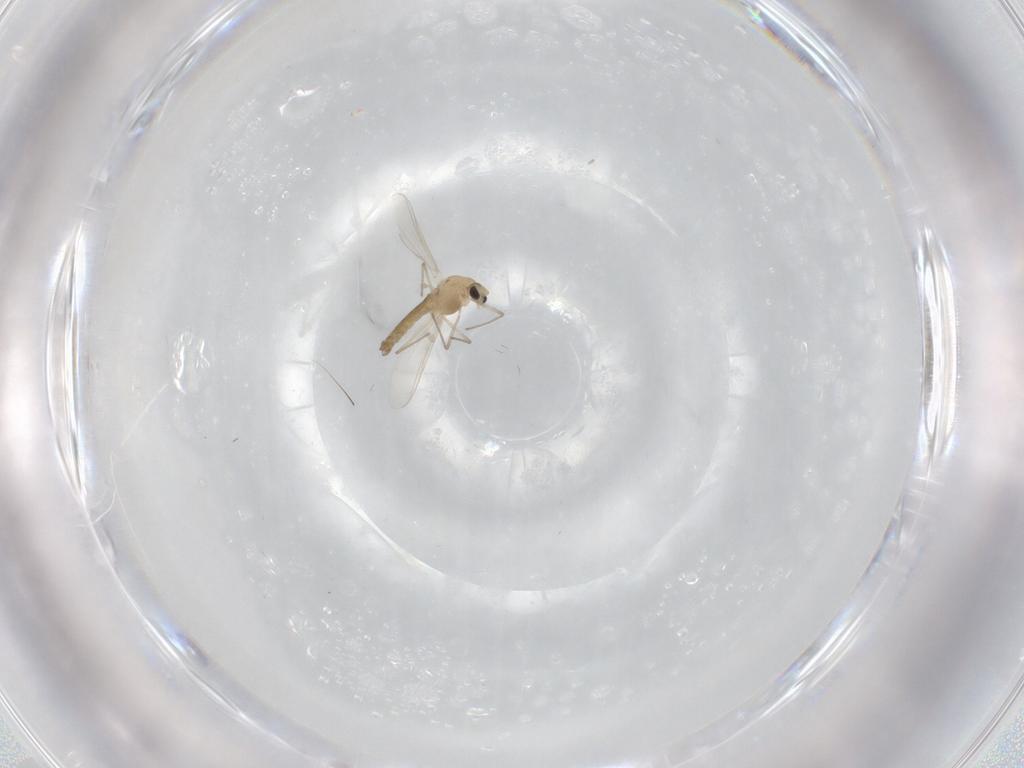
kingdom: Animalia
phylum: Arthropoda
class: Insecta
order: Diptera
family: Chironomidae
